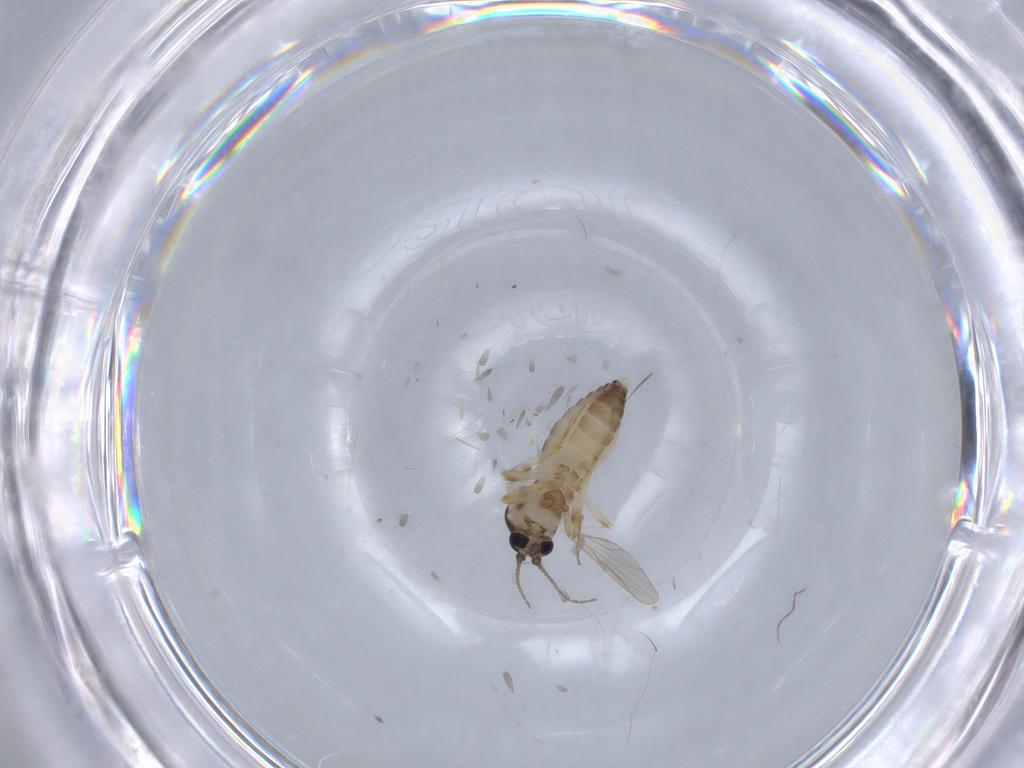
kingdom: Animalia
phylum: Arthropoda
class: Insecta
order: Diptera
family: Ceratopogonidae
